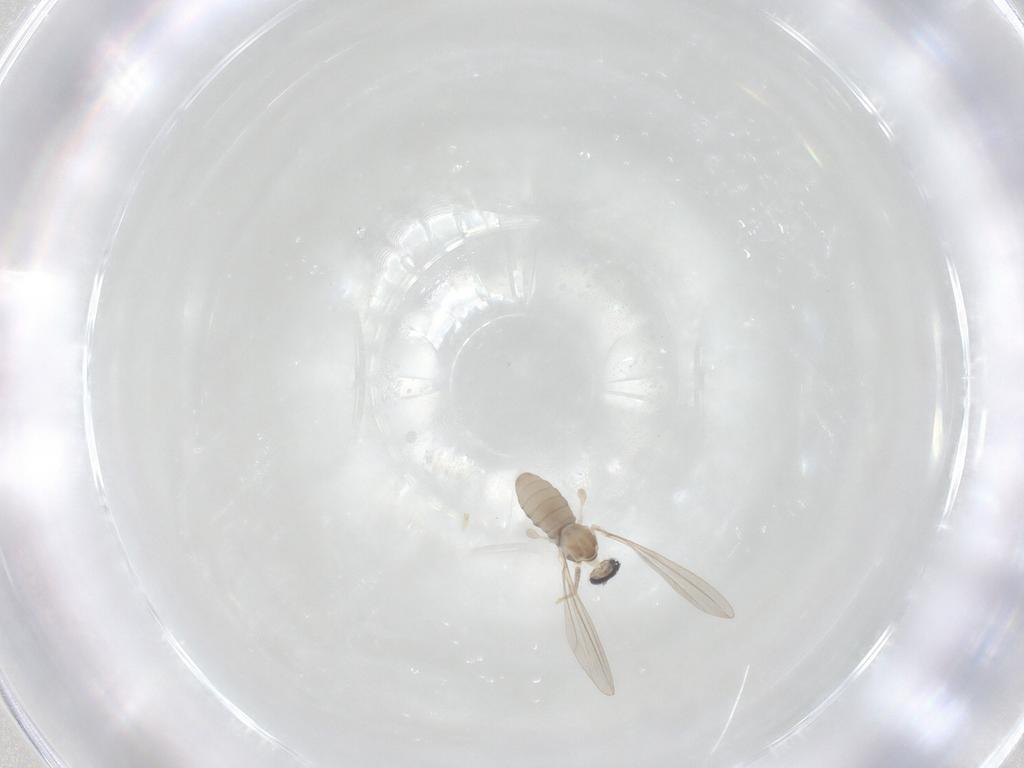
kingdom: Animalia
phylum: Arthropoda
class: Insecta
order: Diptera
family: Cecidomyiidae
